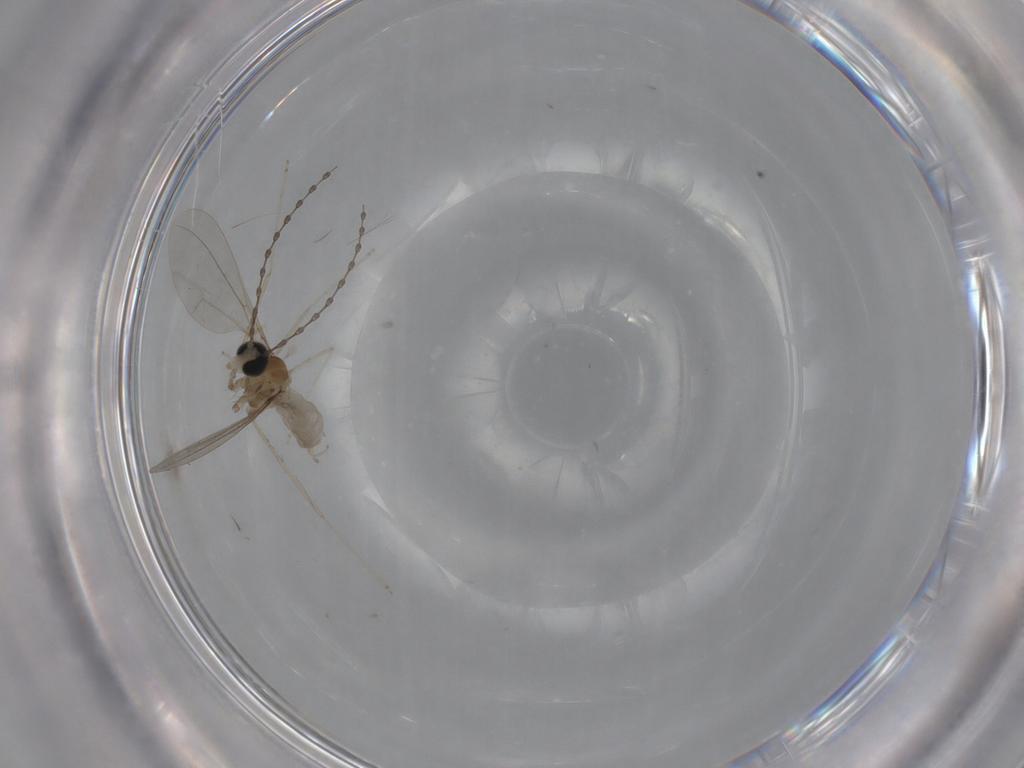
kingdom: Animalia
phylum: Arthropoda
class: Insecta
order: Diptera
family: Cecidomyiidae
